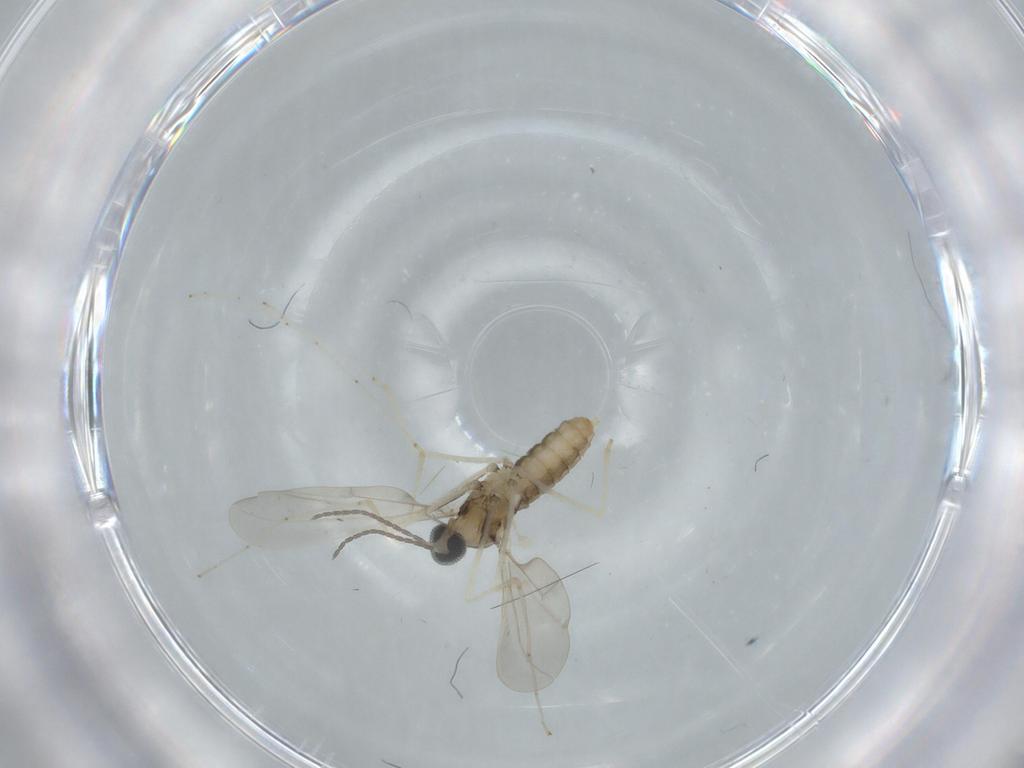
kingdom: Animalia
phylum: Arthropoda
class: Insecta
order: Diptera
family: Cecidomyiidae
